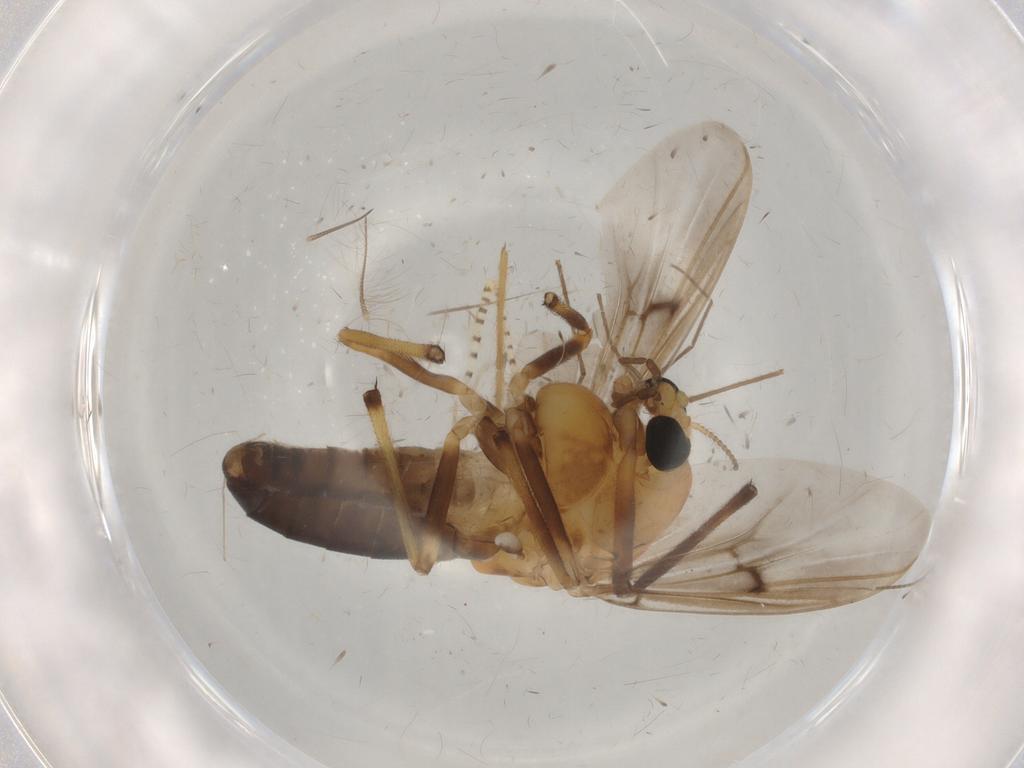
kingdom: Animalia
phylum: Arthropoda
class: Insecta
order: Diptera
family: Chironomidae
